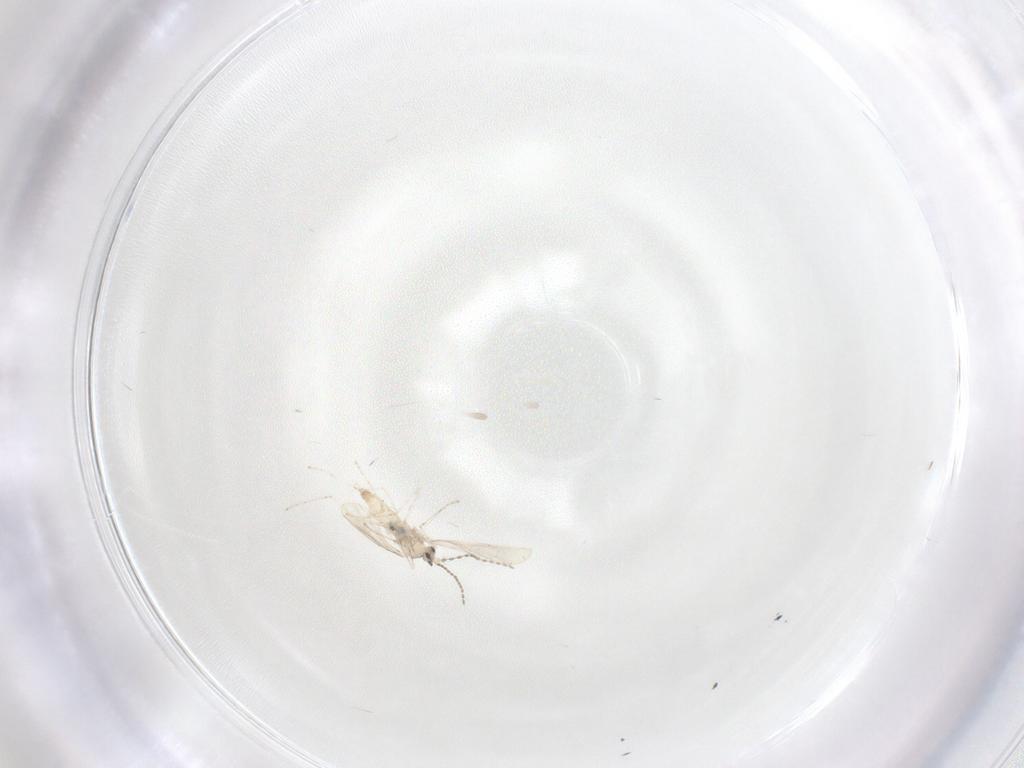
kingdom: Animalia
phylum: Arthropoda
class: Insecta
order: Diptera
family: Cecidomyiidae
